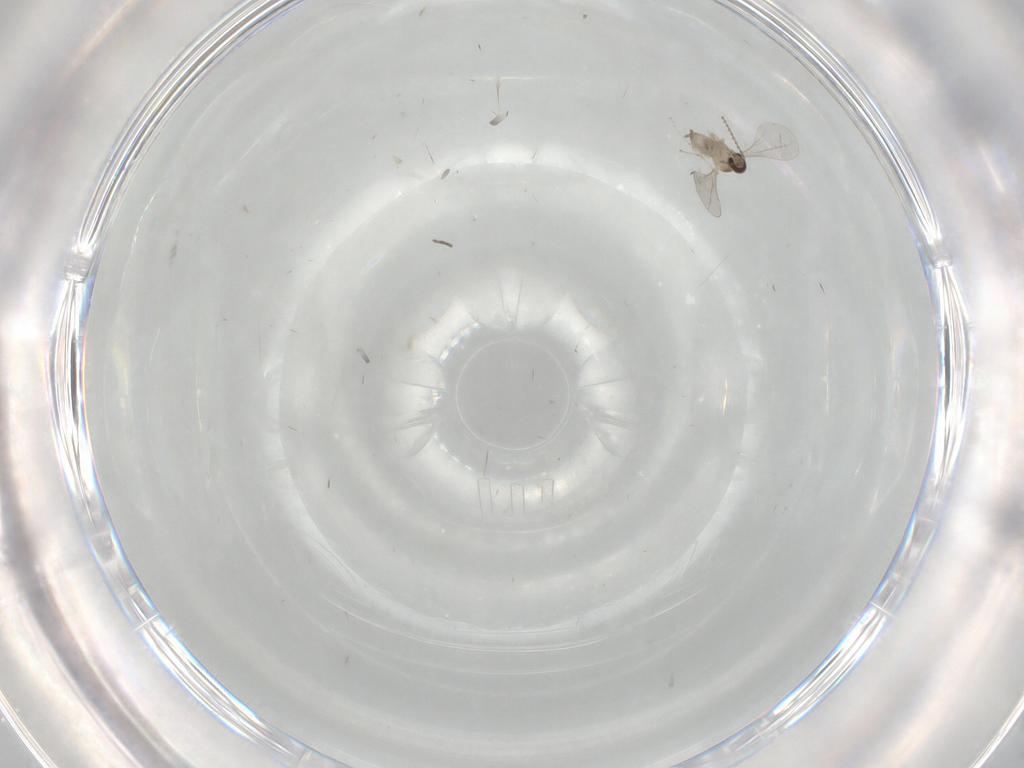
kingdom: Animalia
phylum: Arthropoda
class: Insecta
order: Diptera
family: Cecidomyiidae
